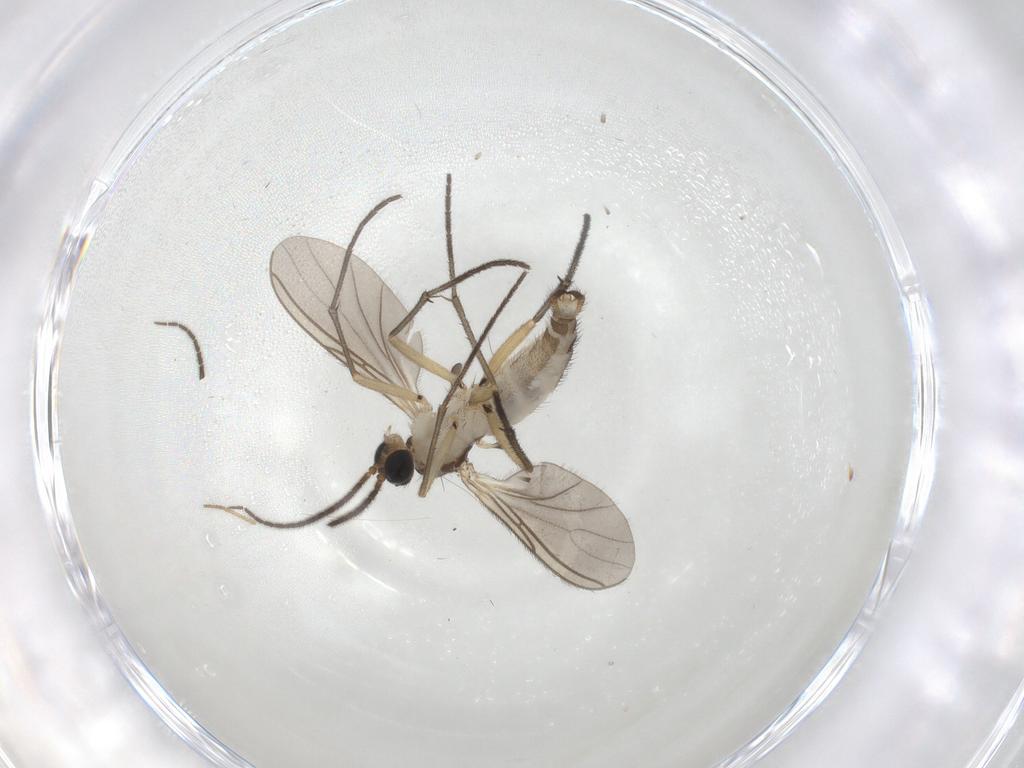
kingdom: Animalia
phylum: Arthropoda
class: Insecta
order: Diptera
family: Sciaridae
